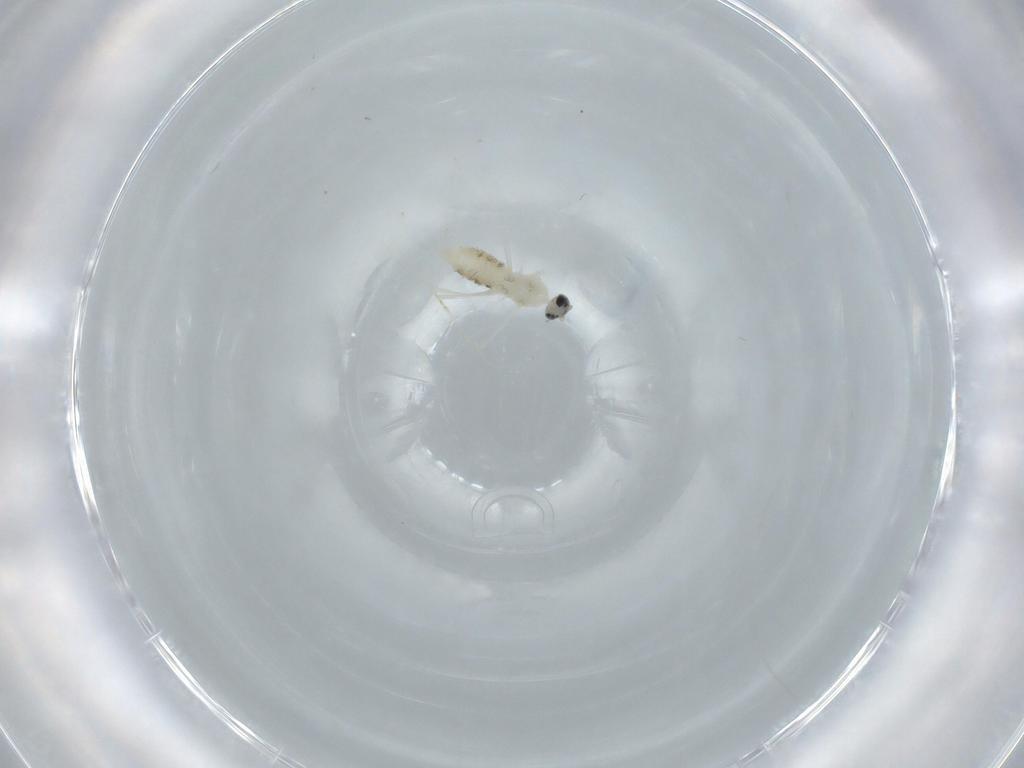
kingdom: Animalia
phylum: Arthropoda
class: Insecta
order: Diptera
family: Cecidomyiidae
